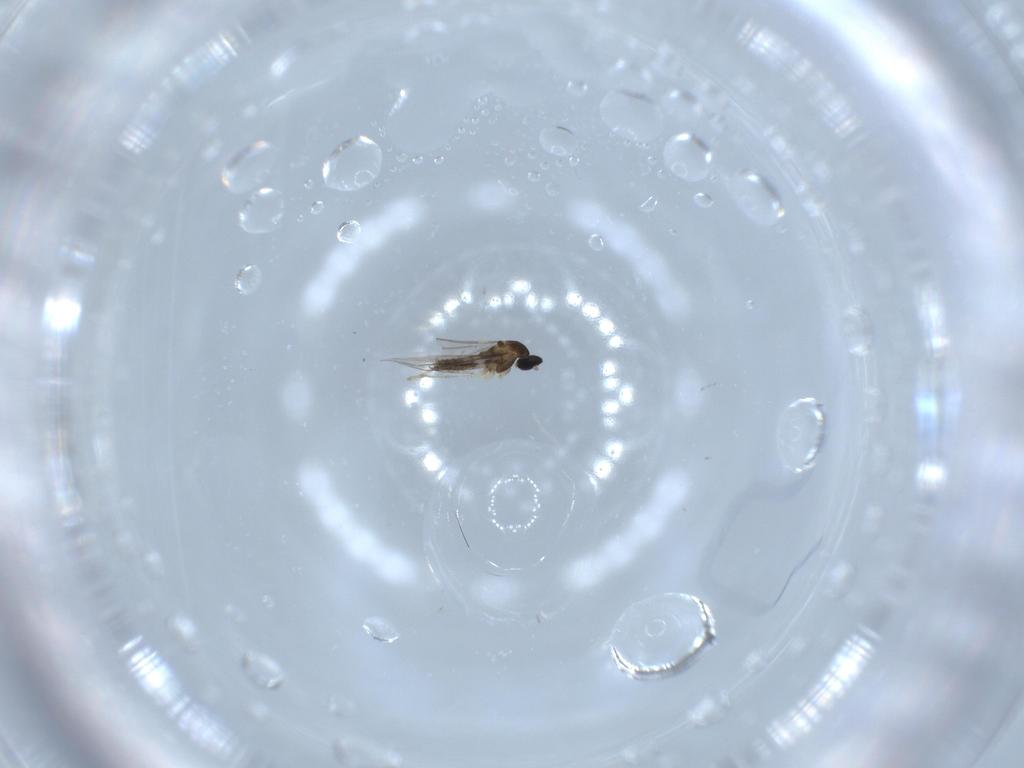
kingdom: Animalia
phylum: Arthropoda
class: Insecta
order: Diptera
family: Cecidomyiidae
